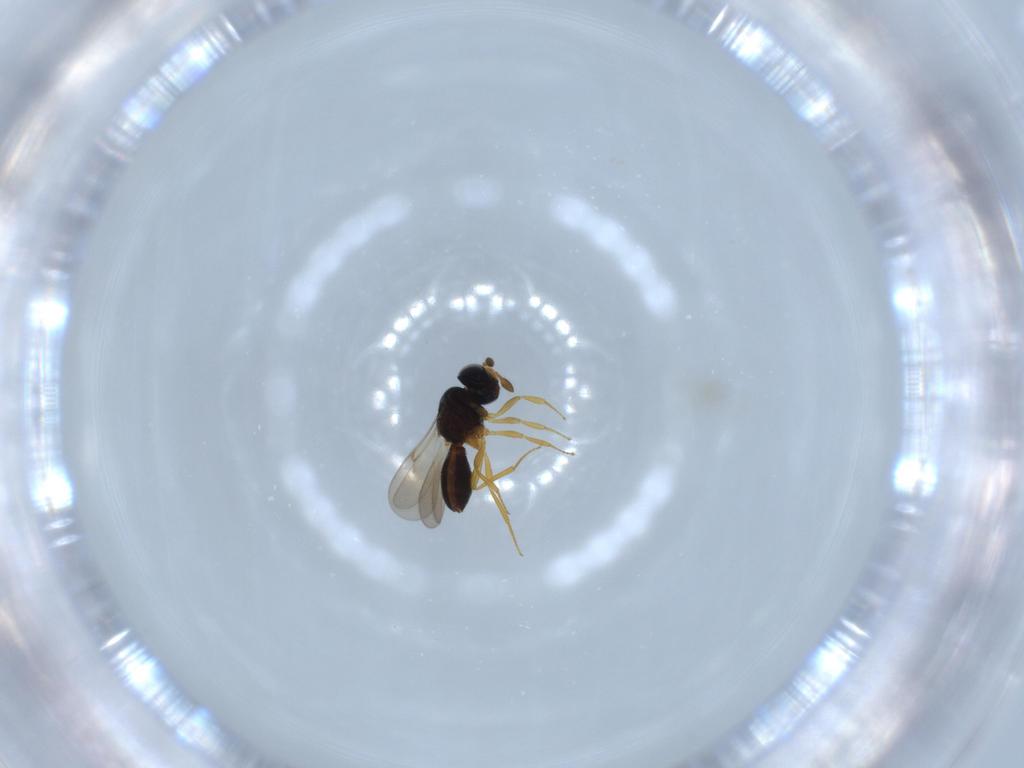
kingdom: Animalia
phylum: Arthropoda
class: Insecta
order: Hymenoptera
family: Scelionidae
